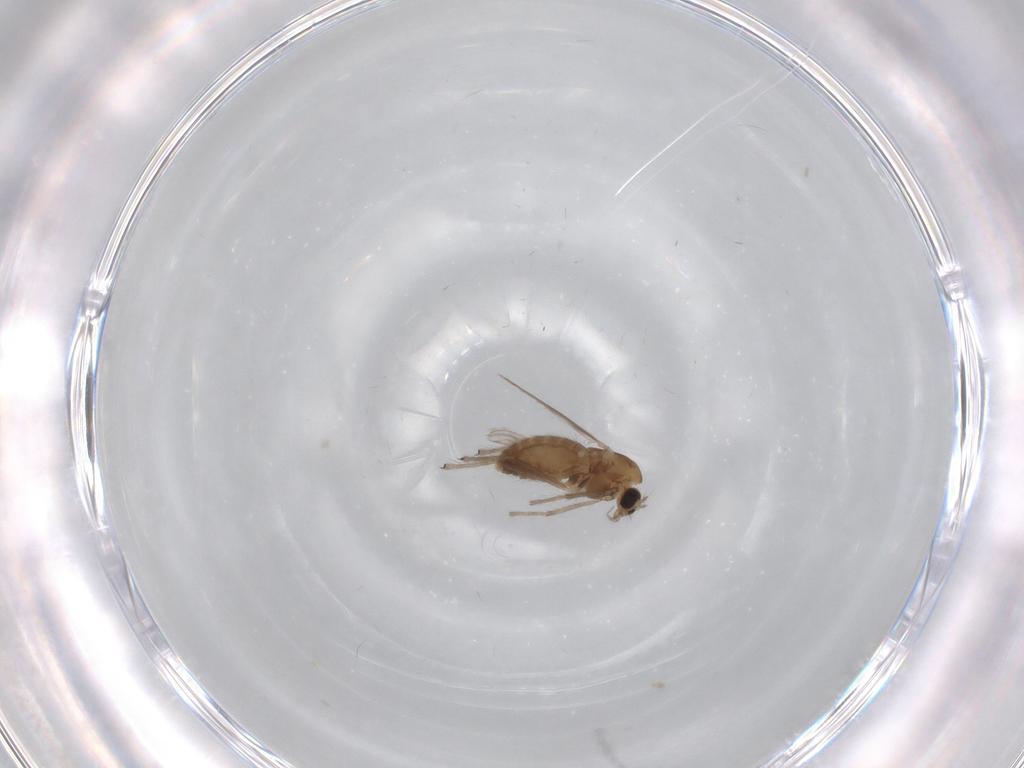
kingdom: Animalia
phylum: Arthropoda
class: Insecta
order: Diptera
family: Chironomidae
